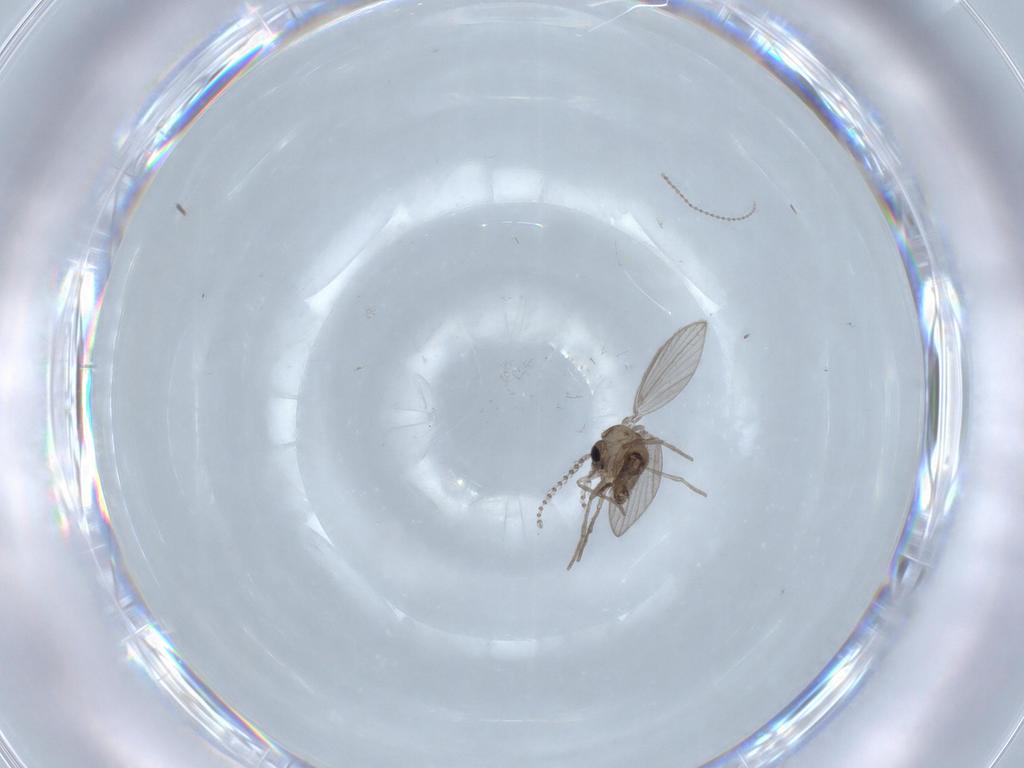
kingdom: Animalia
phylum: Arthropoda
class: Insecta
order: Diptera
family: Psychodidae
